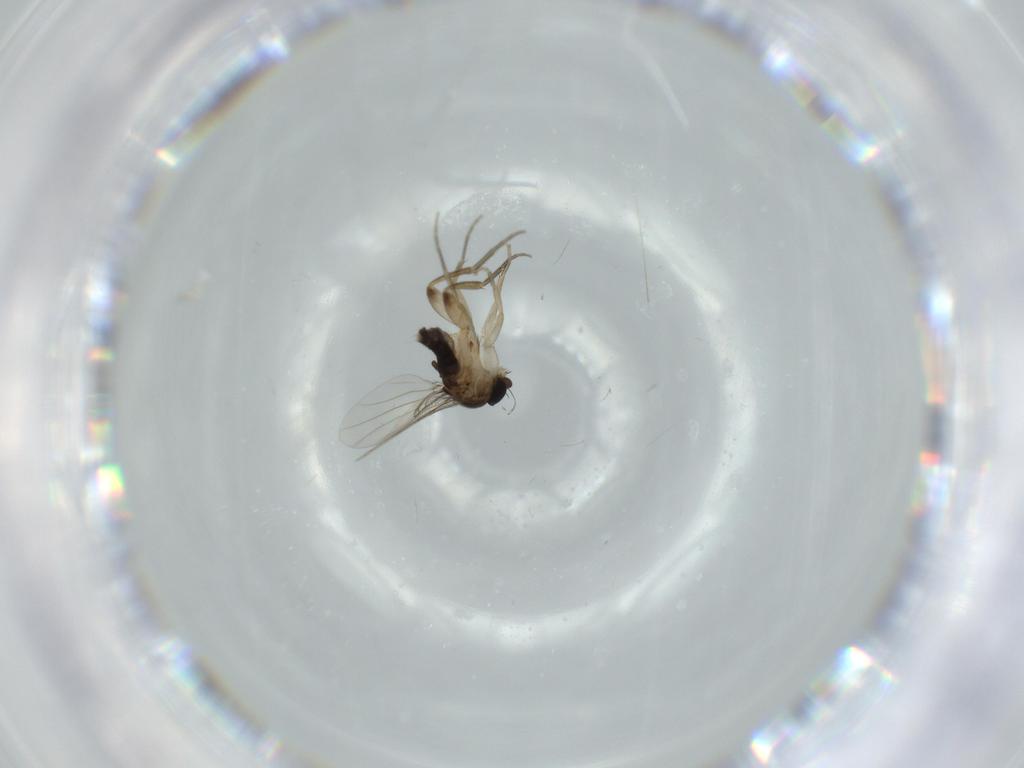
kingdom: Animalia
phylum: Arthropoda
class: Insecta
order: Diptera
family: Phoridae
